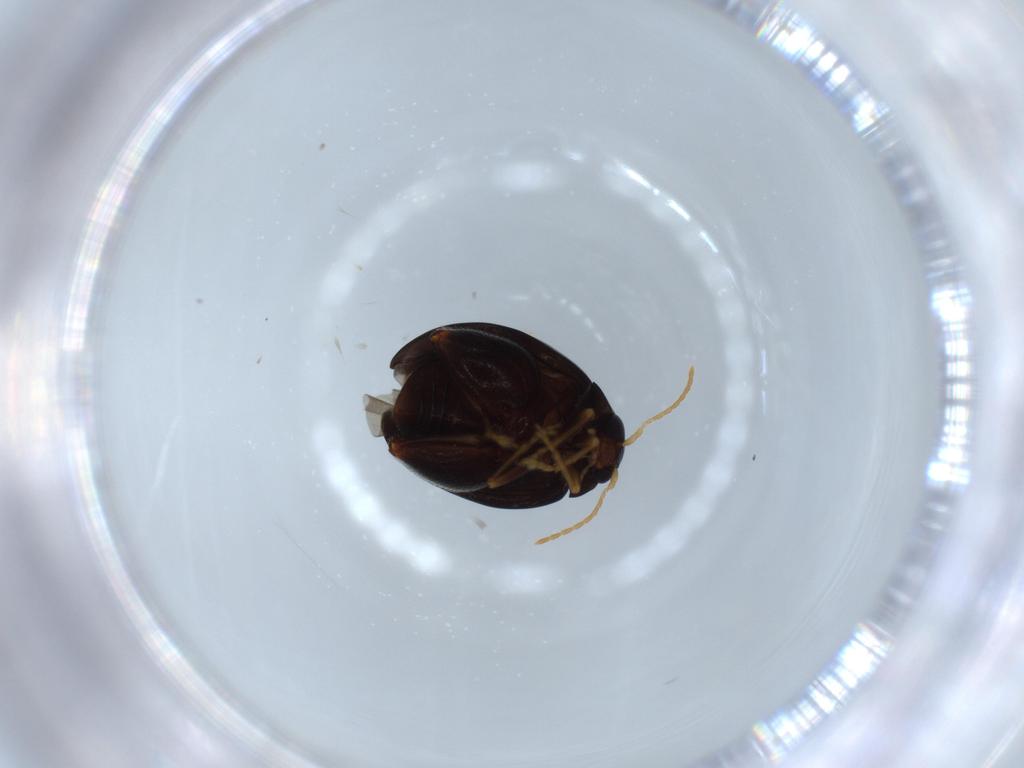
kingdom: Animalia
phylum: Arthropoda
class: Insecta
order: Coleoptera
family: Chrysomelidae
